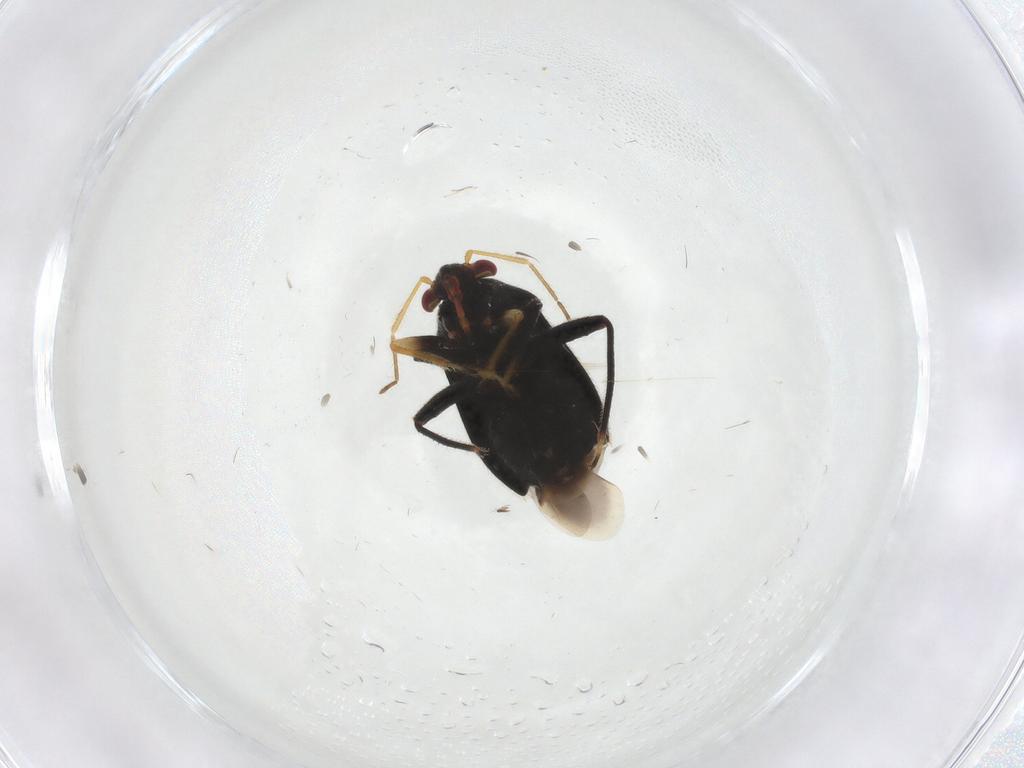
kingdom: Animalia
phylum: Arthropoda
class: Insecta
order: Hemiptera
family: Miridae
